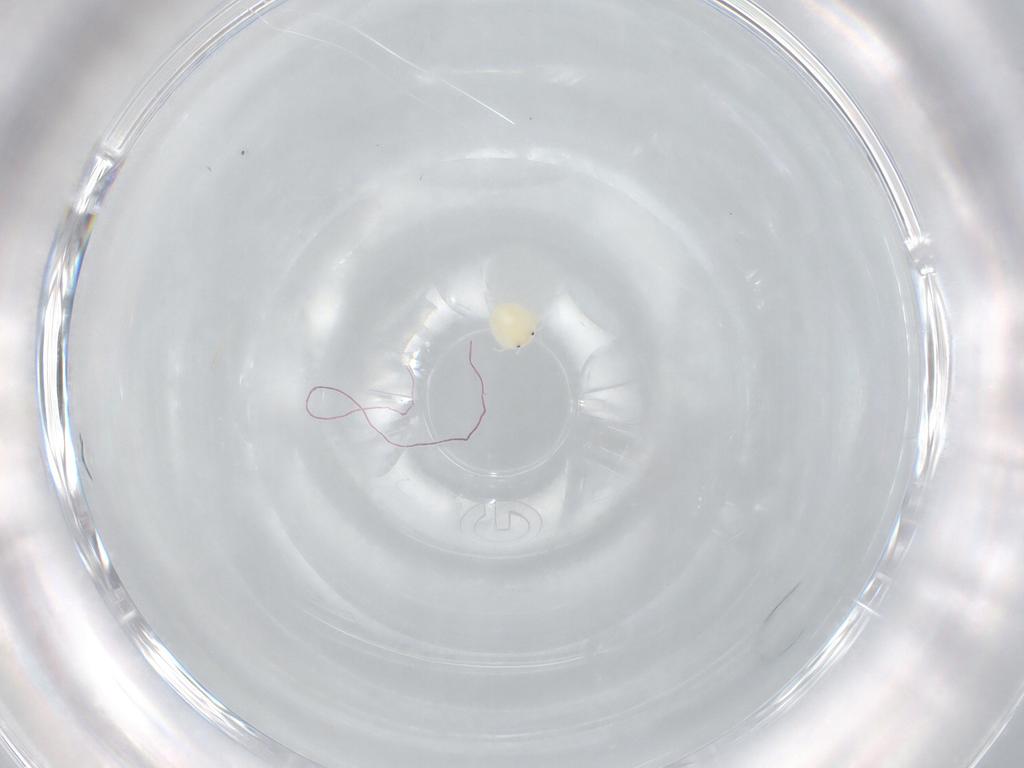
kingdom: Animalia
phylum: Arthropoda
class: Arachnida
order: Trombidiformes
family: Arrenuridae
